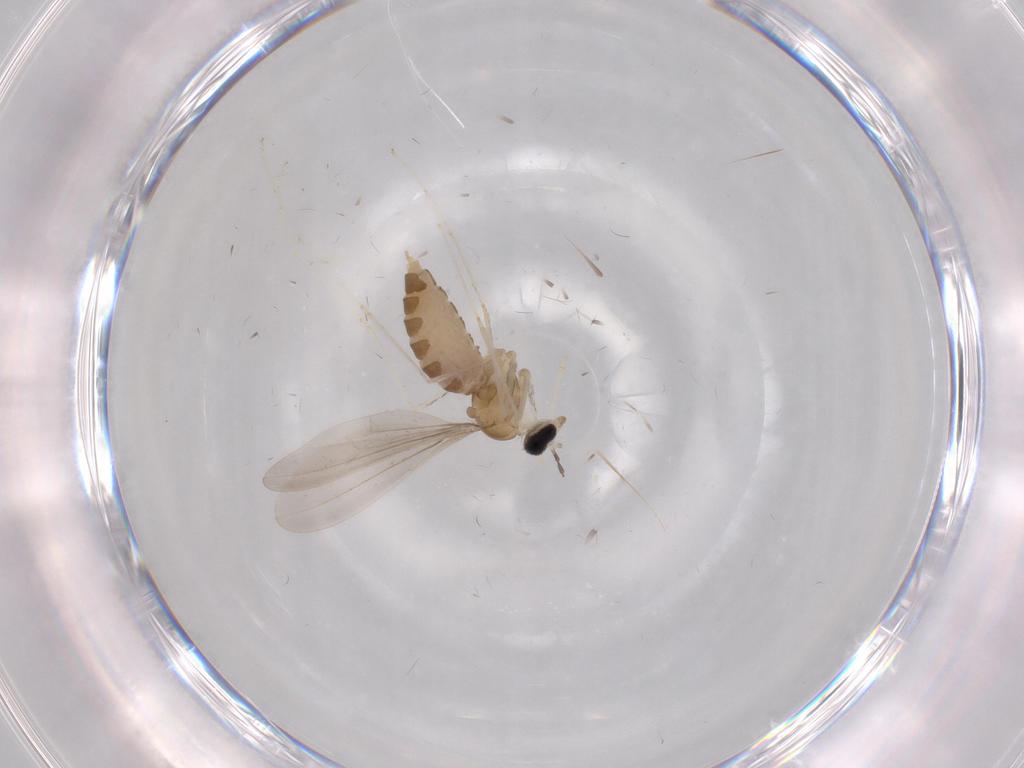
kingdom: Animalia
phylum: Arthropoda
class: Insecta
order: Diptera
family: Cecidomyiidae
